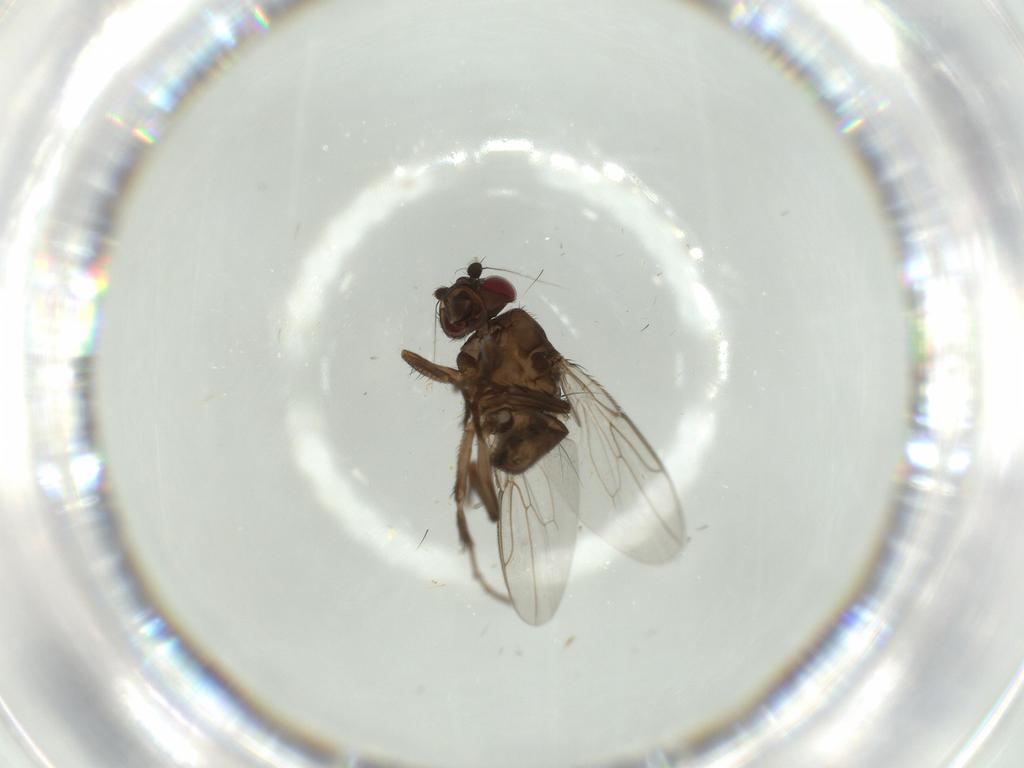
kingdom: Animalia
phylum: Arthropoda
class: Insecta
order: Diptera
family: Sphaeroceridae
